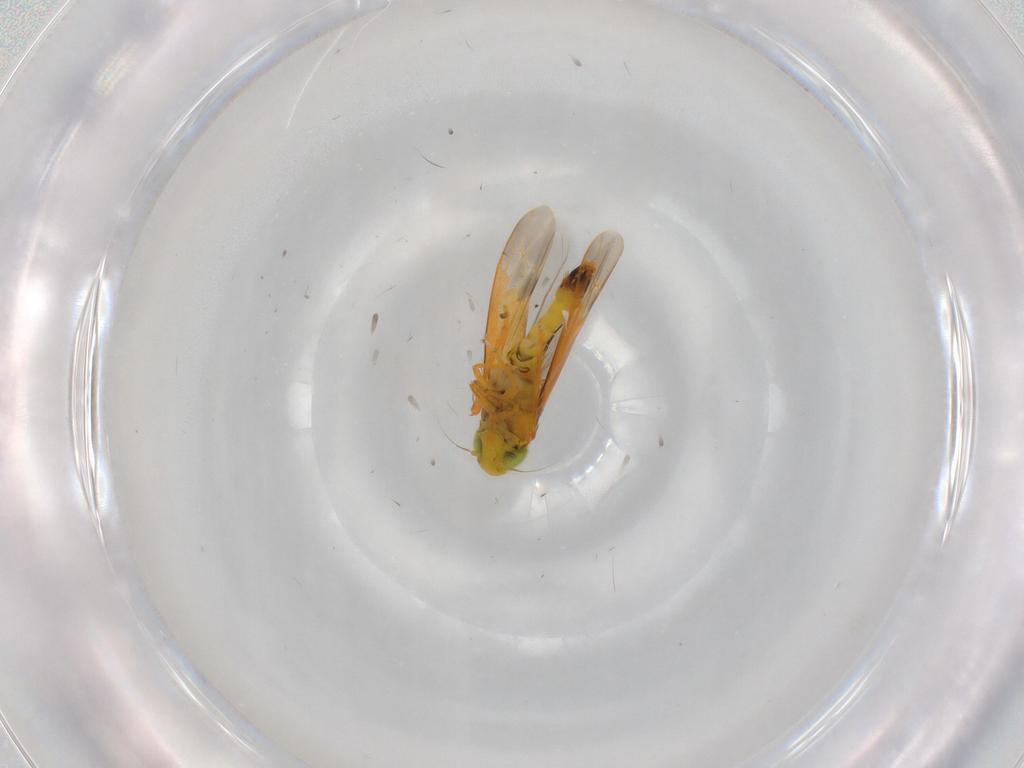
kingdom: Animalia
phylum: Arthropoda
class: Insecta
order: Hemiptera
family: Cicadellidae
